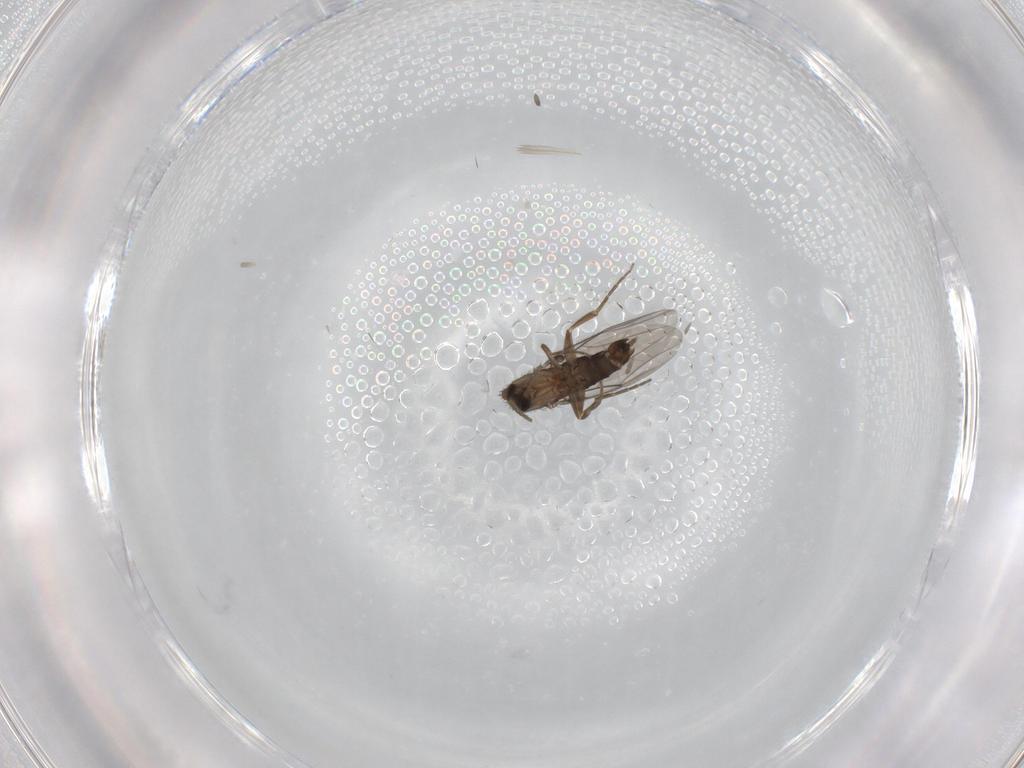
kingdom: Animalia
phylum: Arthropoda
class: Insecta
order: Diptera
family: Phoridae
